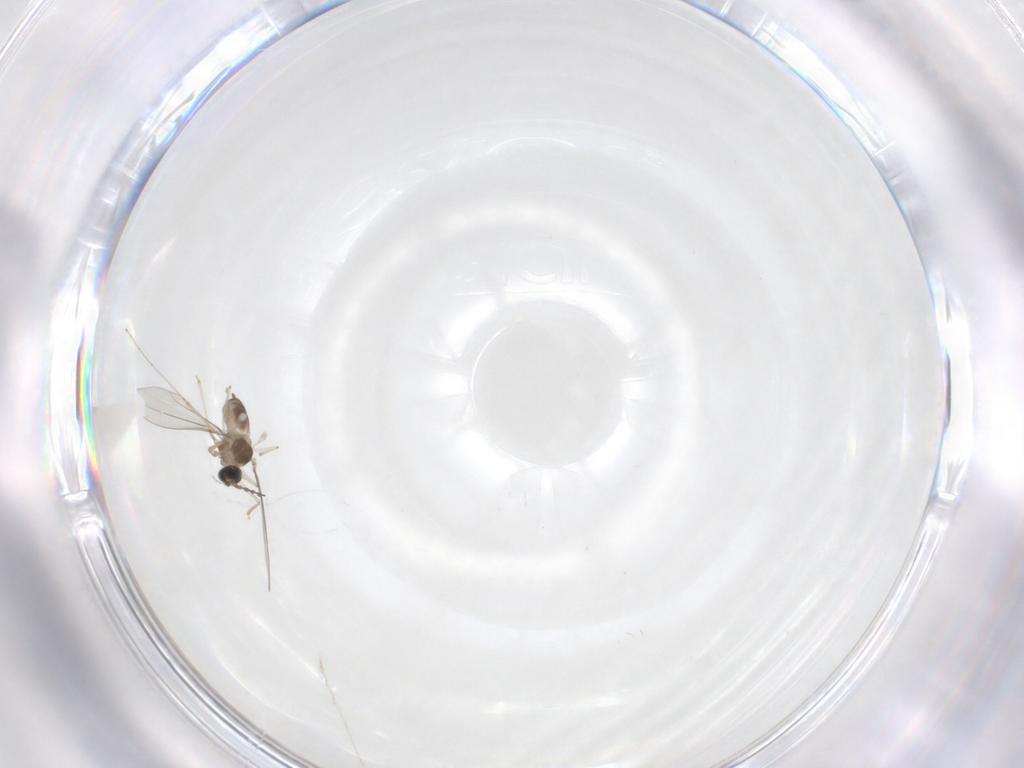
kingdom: Animalia
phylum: Arthropoda
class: Insecta
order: Diptera
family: Cecidomyiidae
